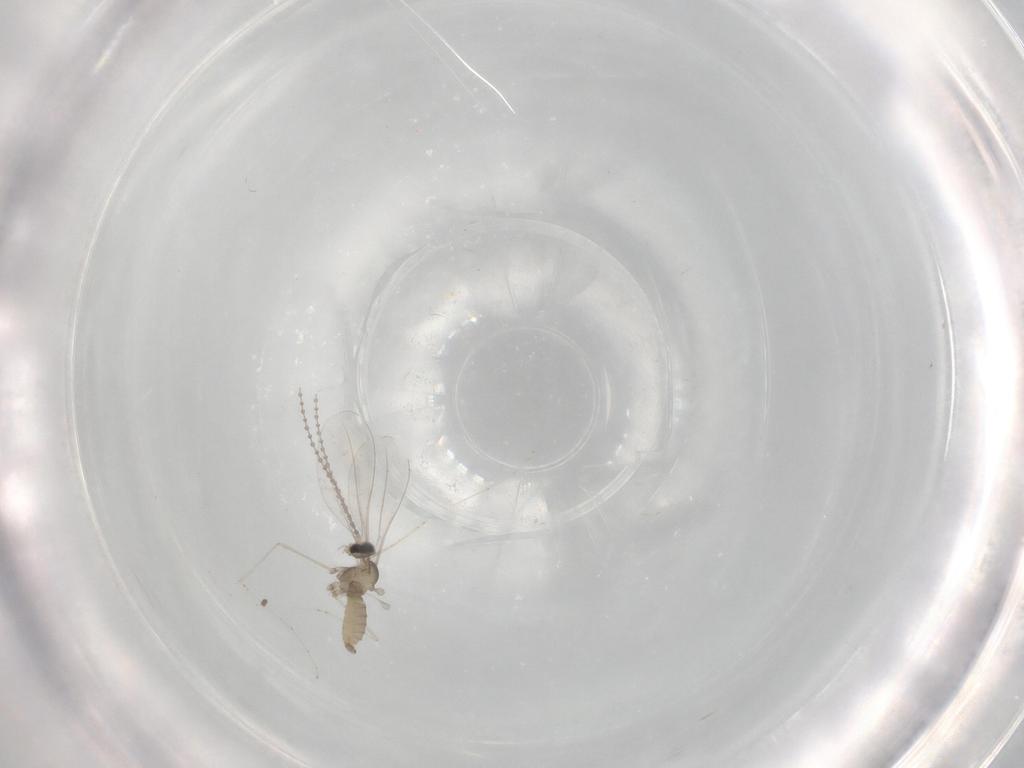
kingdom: Animalia
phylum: Arthropoda
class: Insecta
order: Diptera
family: Cecidomyiidae
